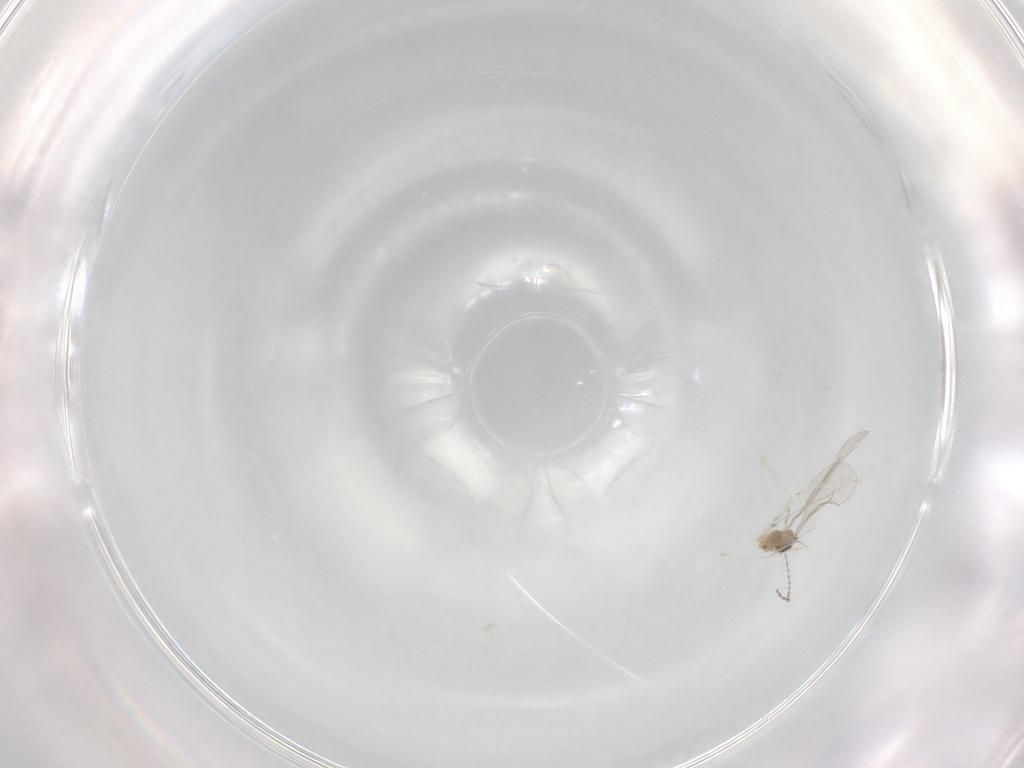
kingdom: Animalia
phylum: Arthropoda
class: Insecta
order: Diptera
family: Cecidomyiidae
